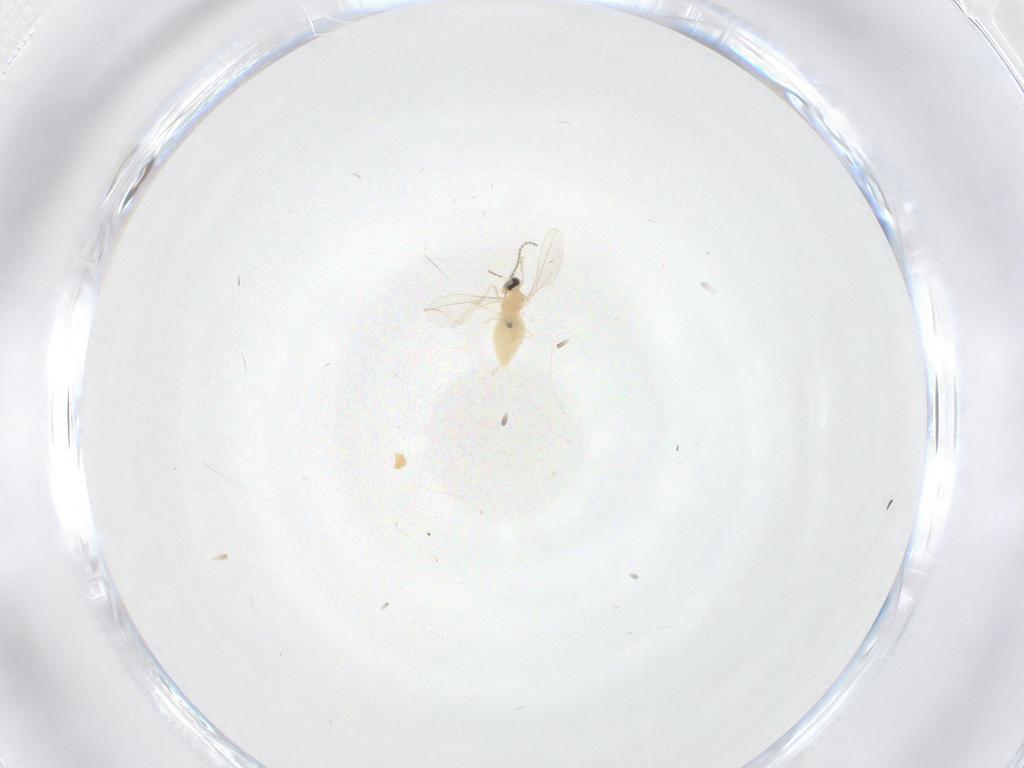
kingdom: Animalia
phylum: Arthropoda
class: Insecta
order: Diptera
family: Cecidomyiidae
